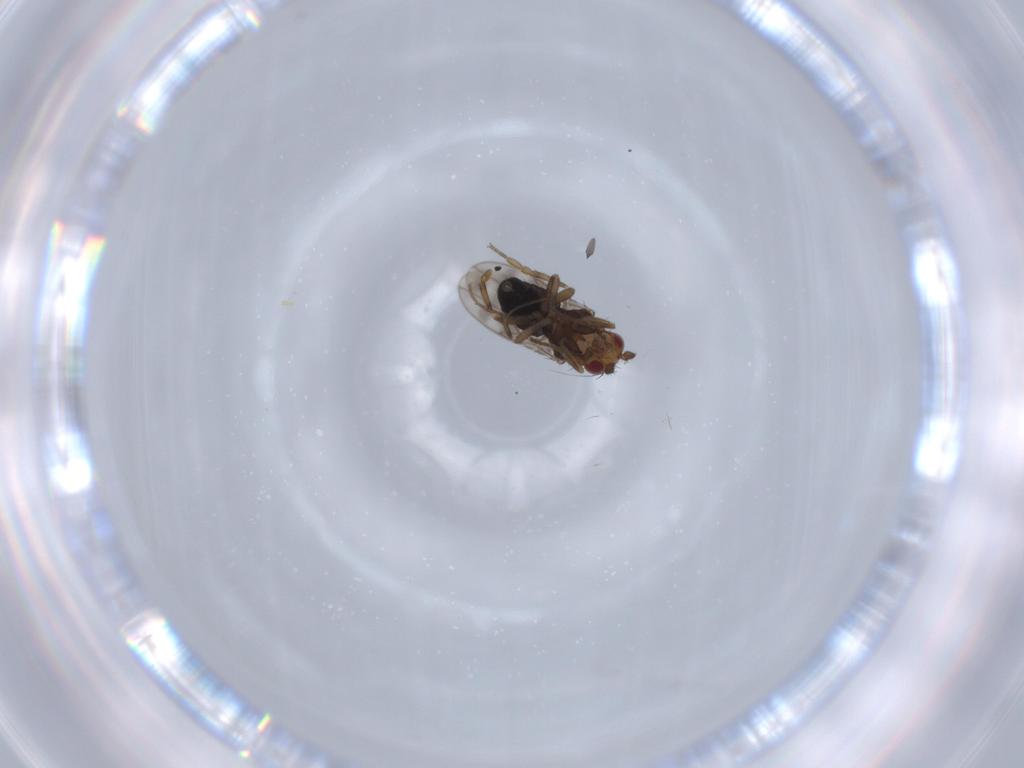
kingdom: Animalia
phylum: Arthropoda
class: Insecta
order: Diptera
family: Sphaeroceridae
